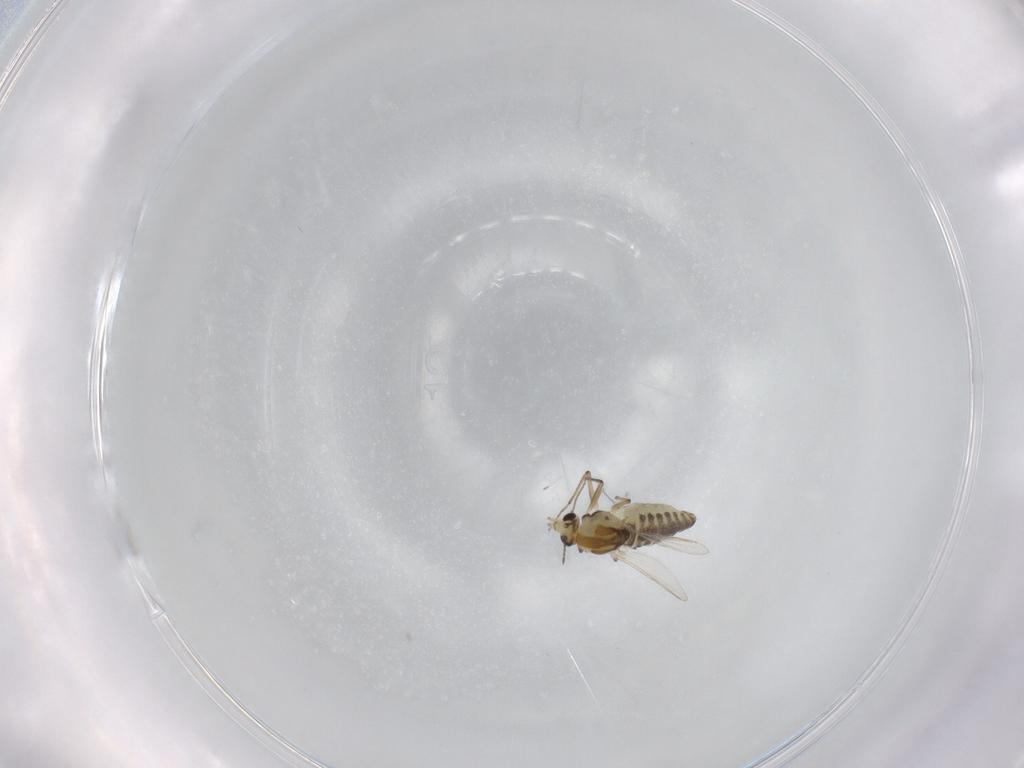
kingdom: Animalia
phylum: Arthropoda
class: Insecta
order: Diptera
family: Chironomidae
